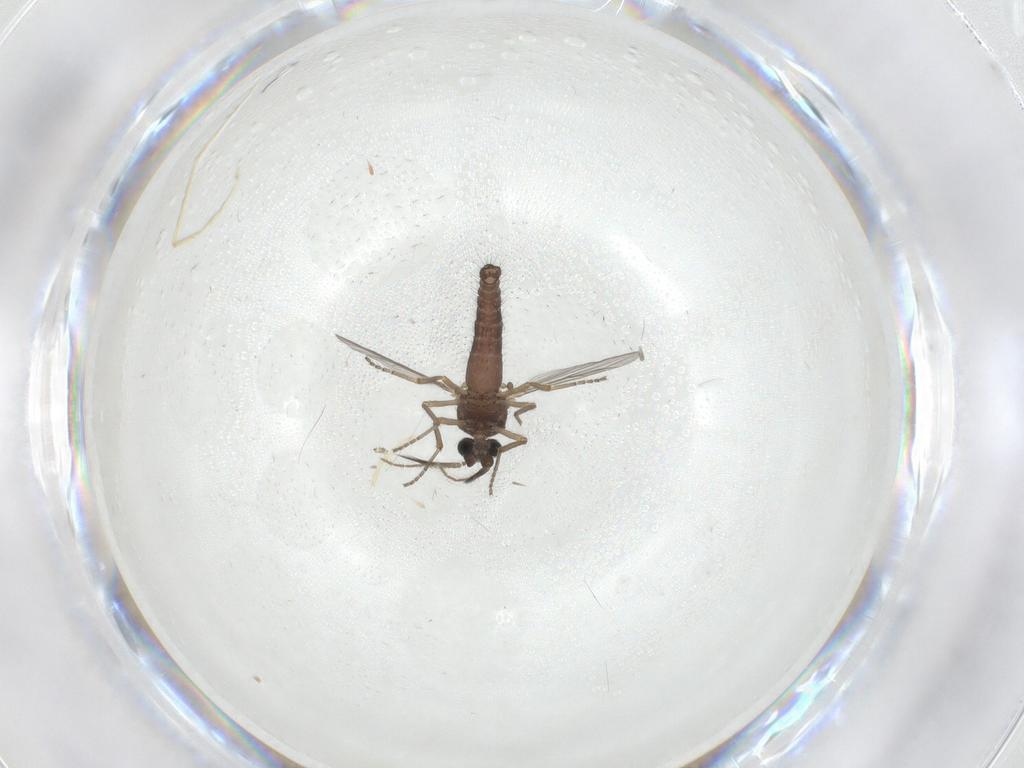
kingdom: Animalia
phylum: Arthropoda
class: Insecta
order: Diptera
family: Ceratopogonidae
